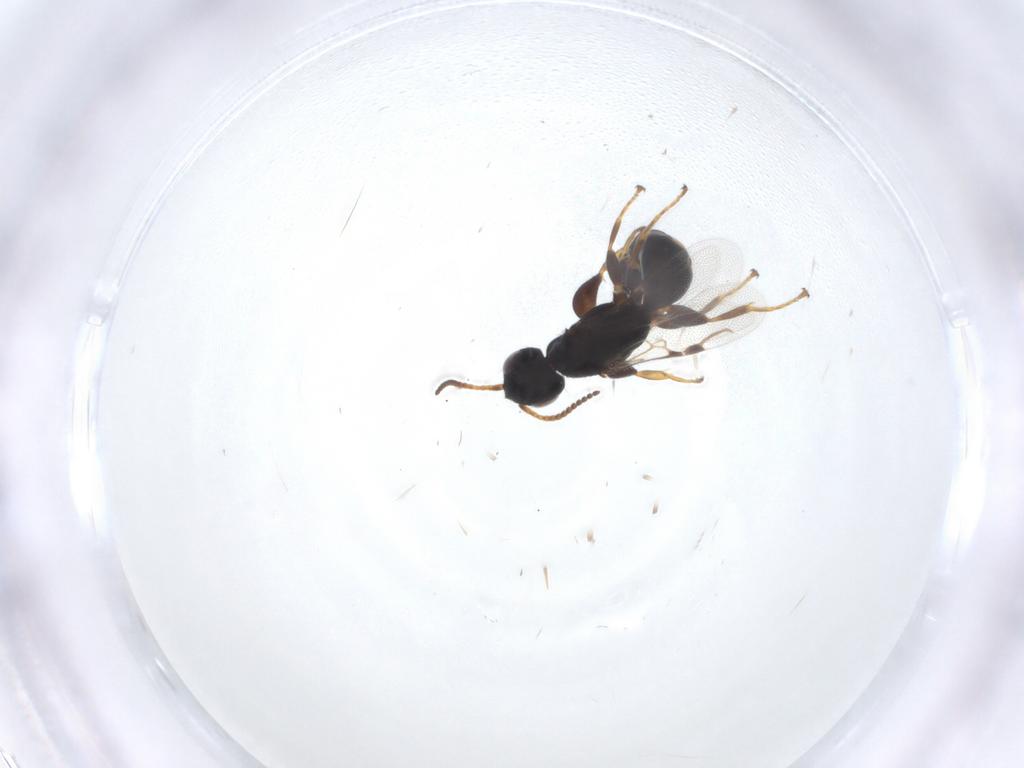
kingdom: Animalia
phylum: Arthropoda
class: Insecta
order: Hymenoptera
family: Bethylidae
